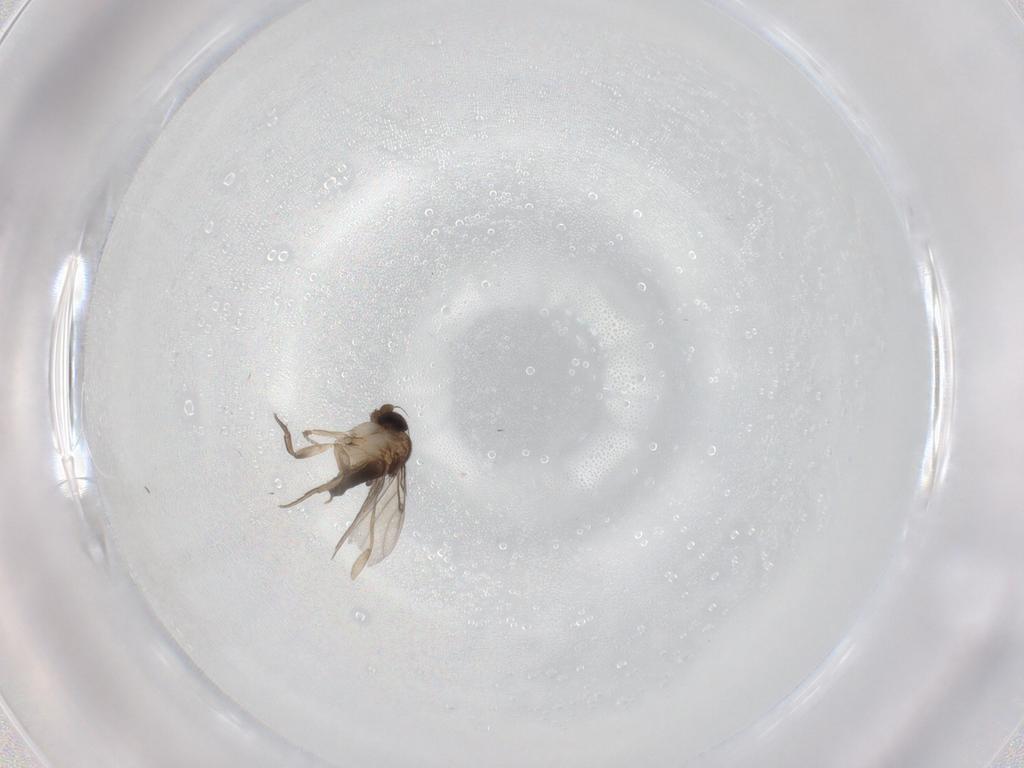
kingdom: Animalia
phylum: Arthropoda
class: Insecta
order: Diptera
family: Phoridae
